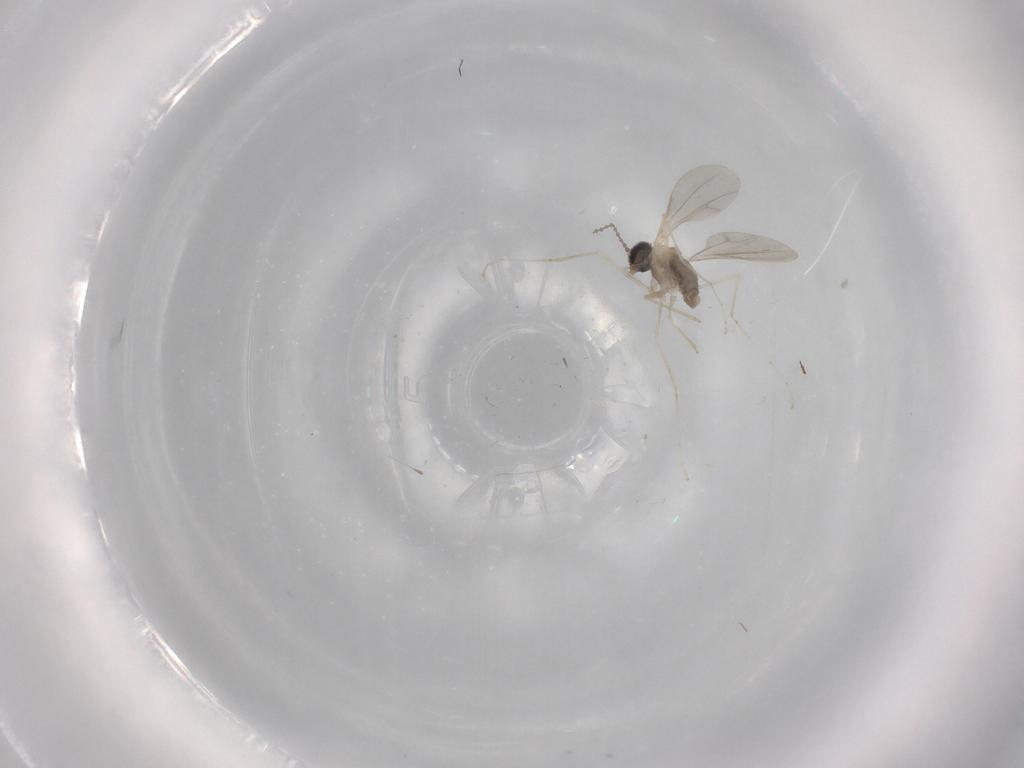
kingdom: Animalia
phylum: Arthropoda
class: Insecta
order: Diptera
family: Cecidomyiidae
